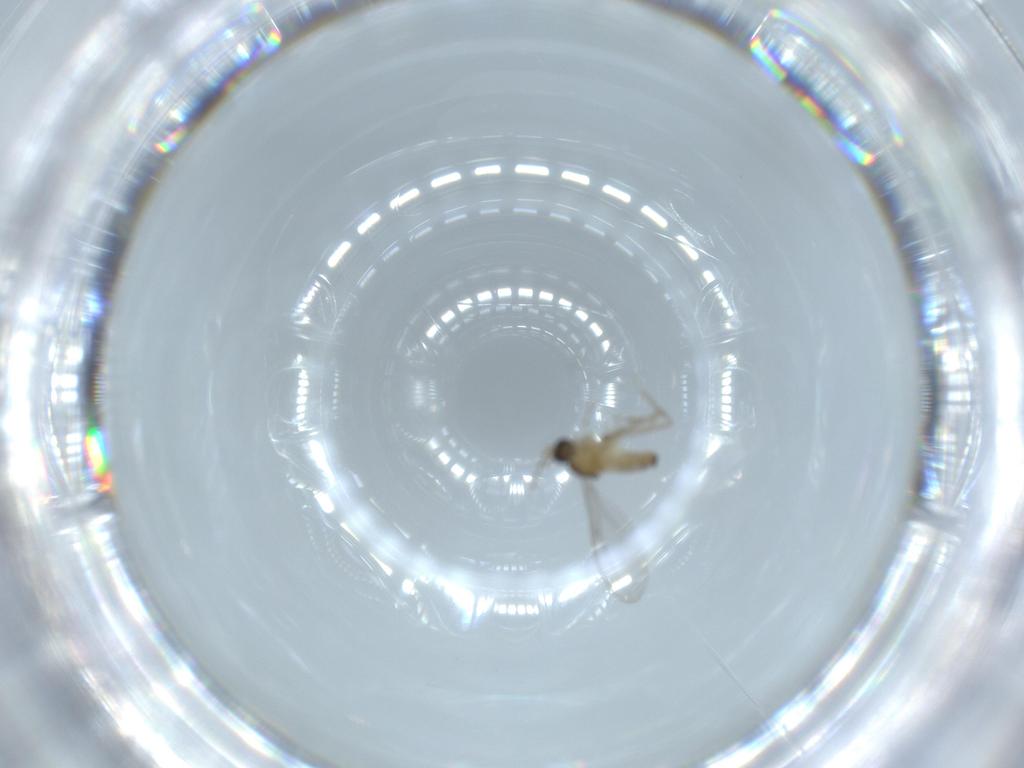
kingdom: Animalia
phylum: Arthropoda
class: Insecta
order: Diptera
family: Cecidomyiidae
